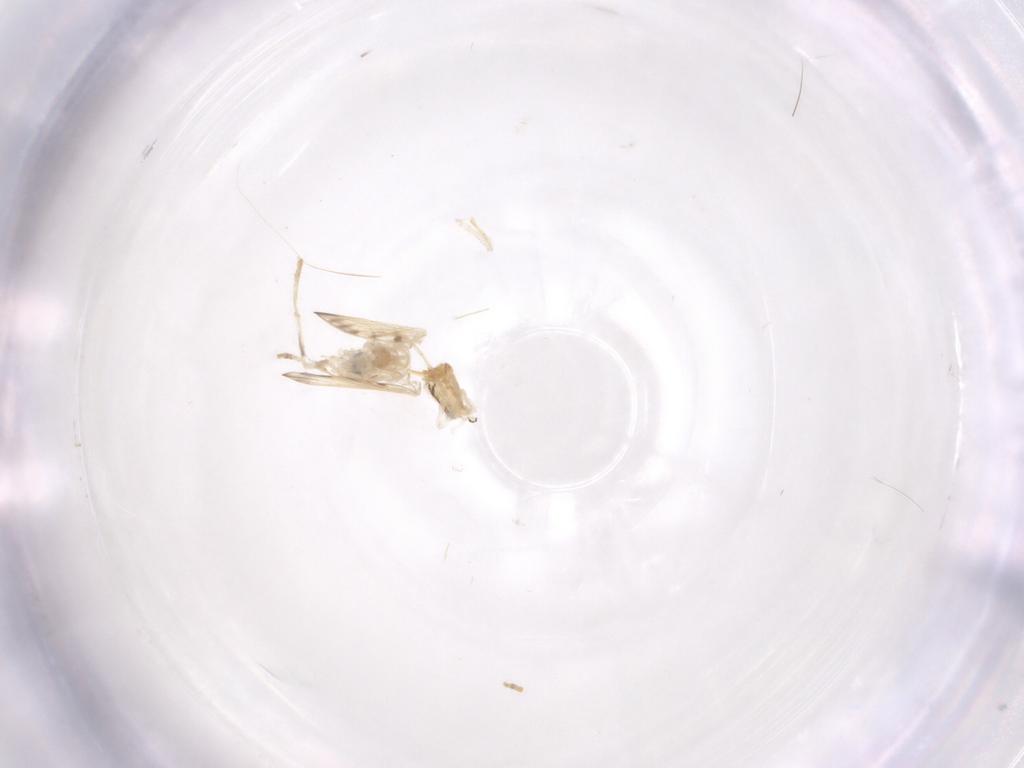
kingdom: Animalia
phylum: Arthropoda
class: Insecta
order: Diptera
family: Psychodidae
